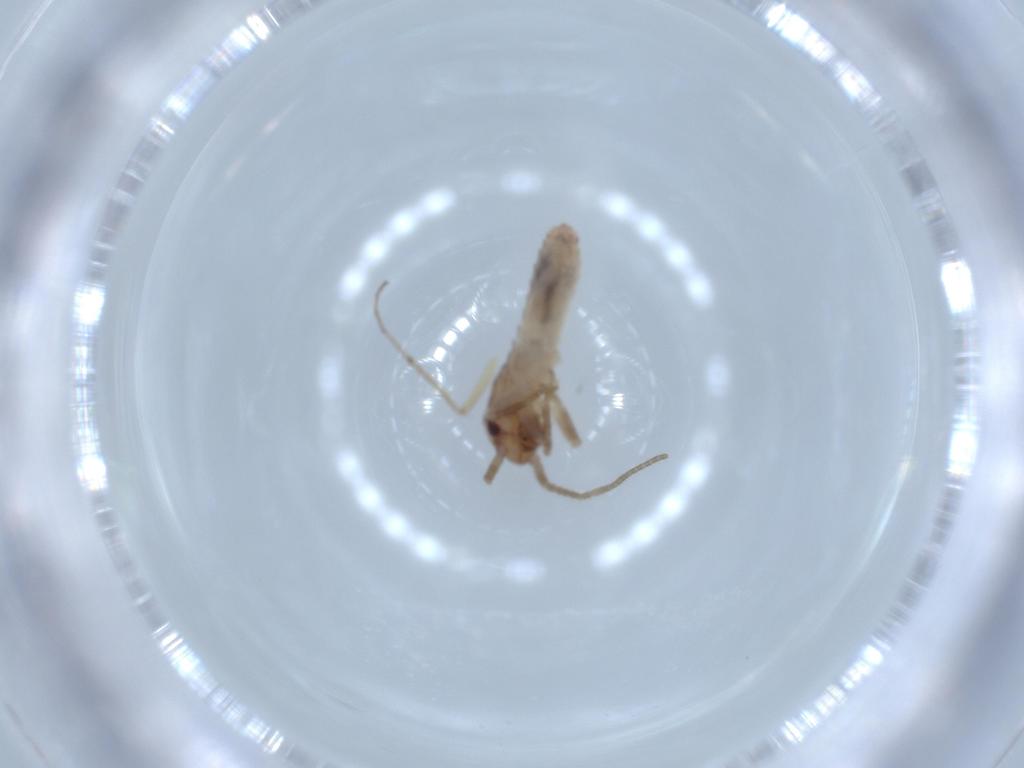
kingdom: Animalia
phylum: Arthropoda
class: Insecta
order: Orthoptera
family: Mogoplistidae
